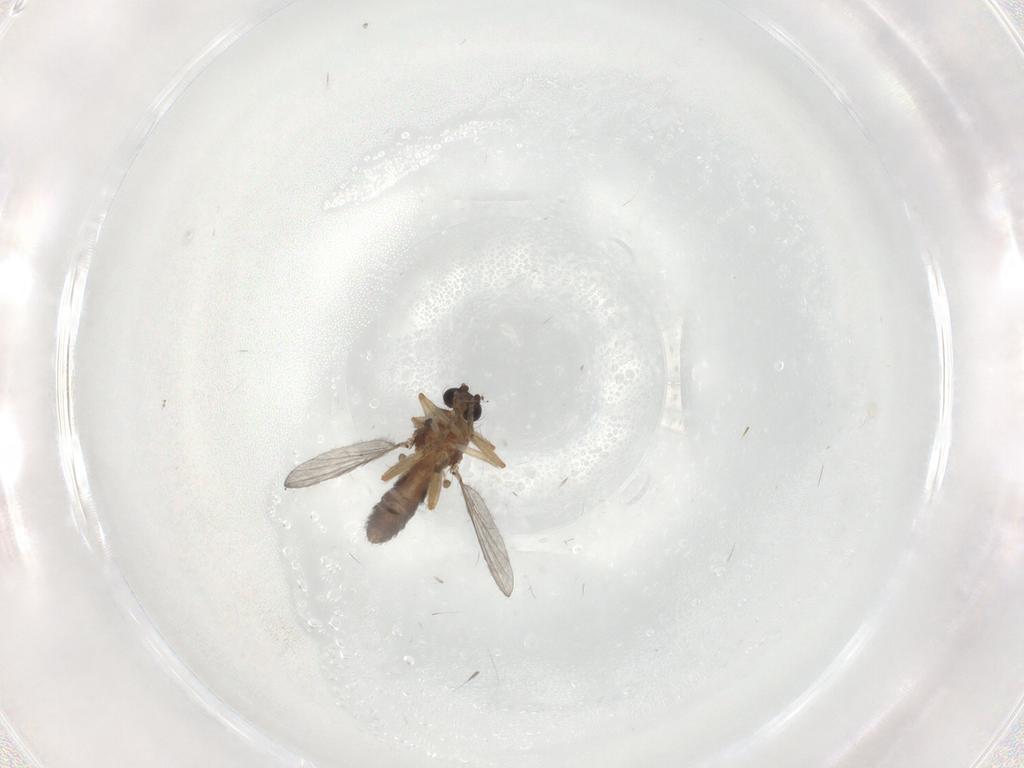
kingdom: Animalia
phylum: Arthropoda
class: Insecta
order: Diptera
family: Ceratopogonidae
